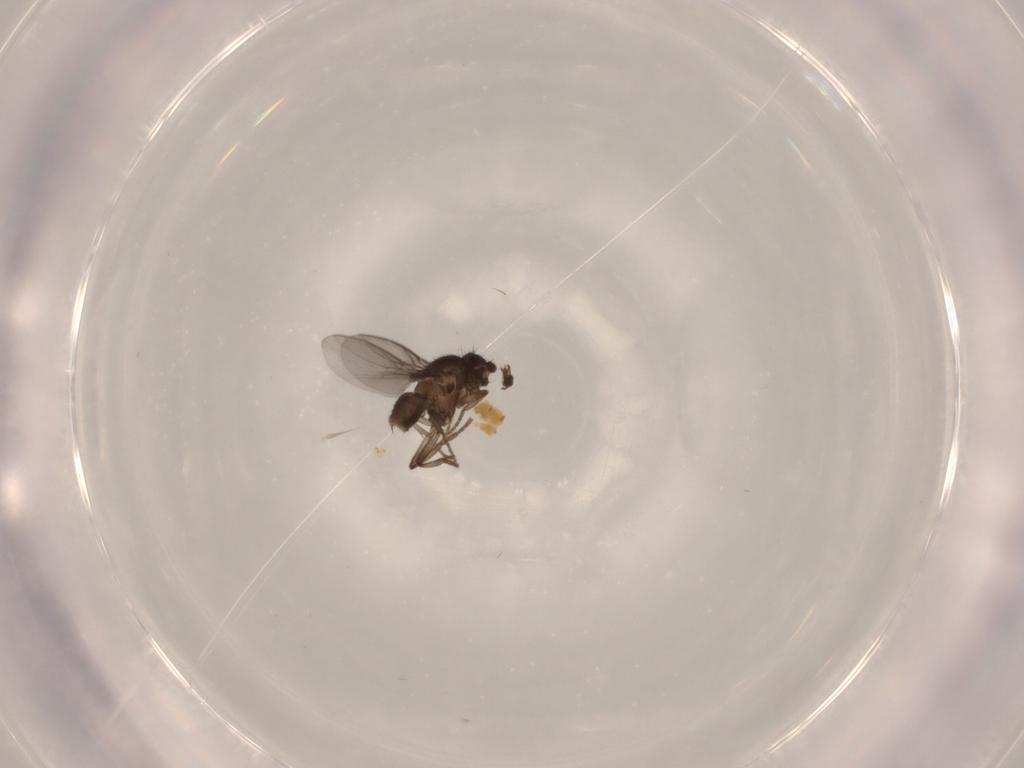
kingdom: Animalia
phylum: Arthropoda
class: Insecta
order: Diptera
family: Sphaeroceridae
